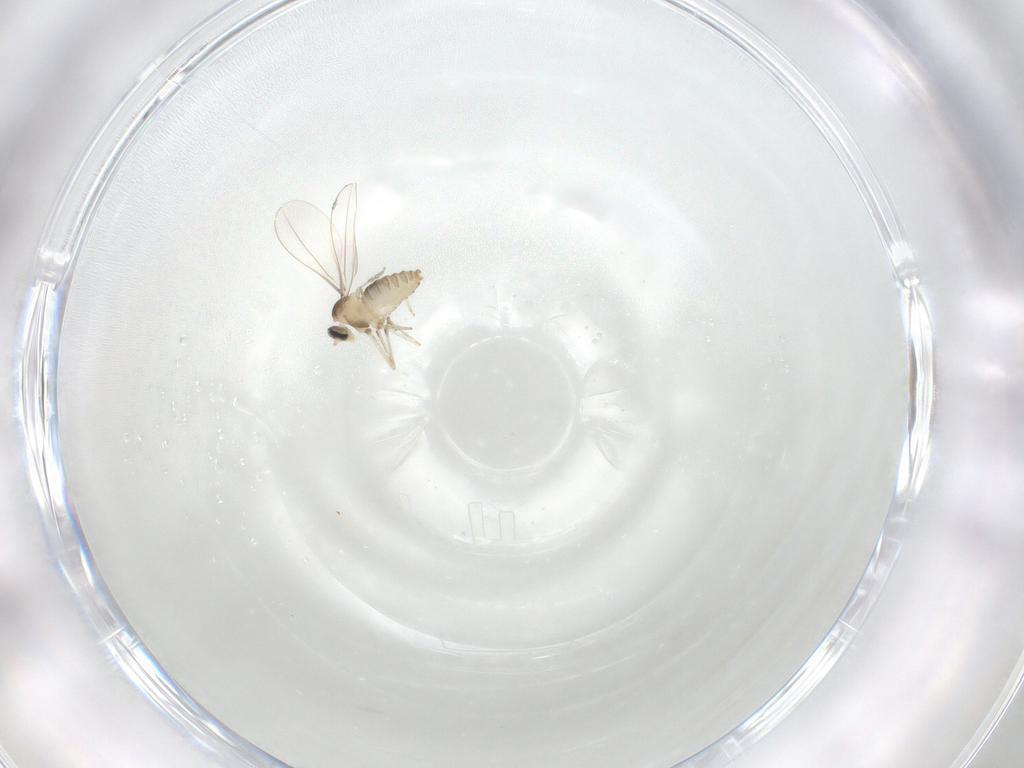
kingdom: Animalia
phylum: Arthropoda
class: Insecta
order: Diptera
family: Cecidomyiidae
